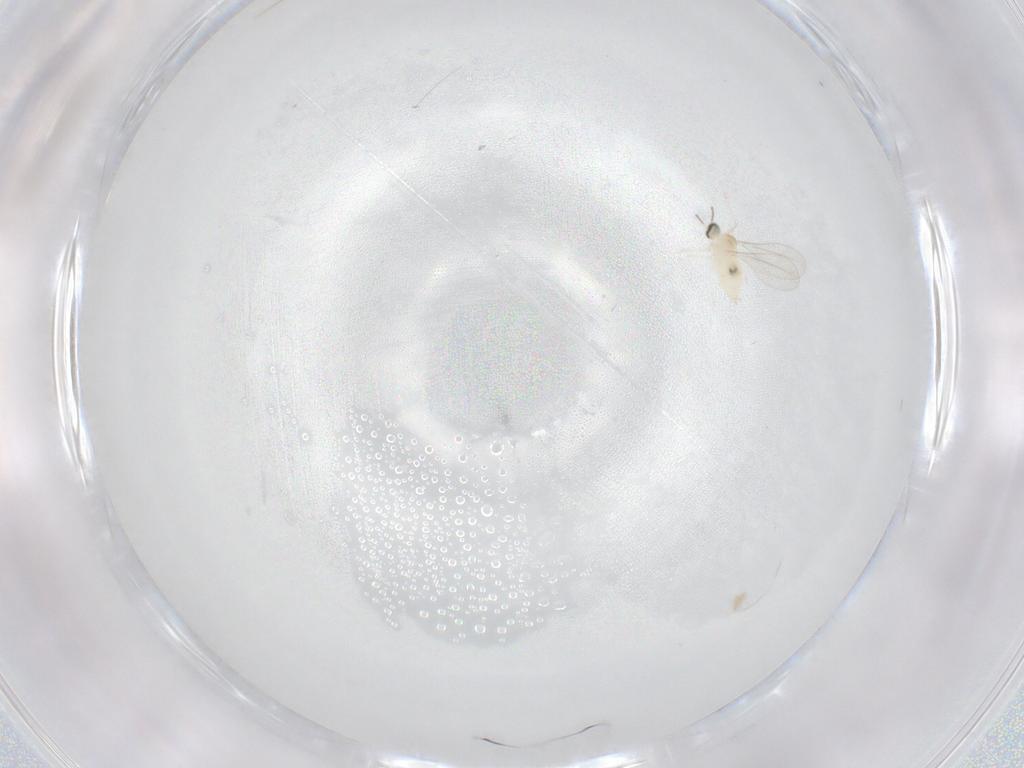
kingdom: Animalia
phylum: Arthropoda
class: Insecta
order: Diptera
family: Cecidomyiidae
